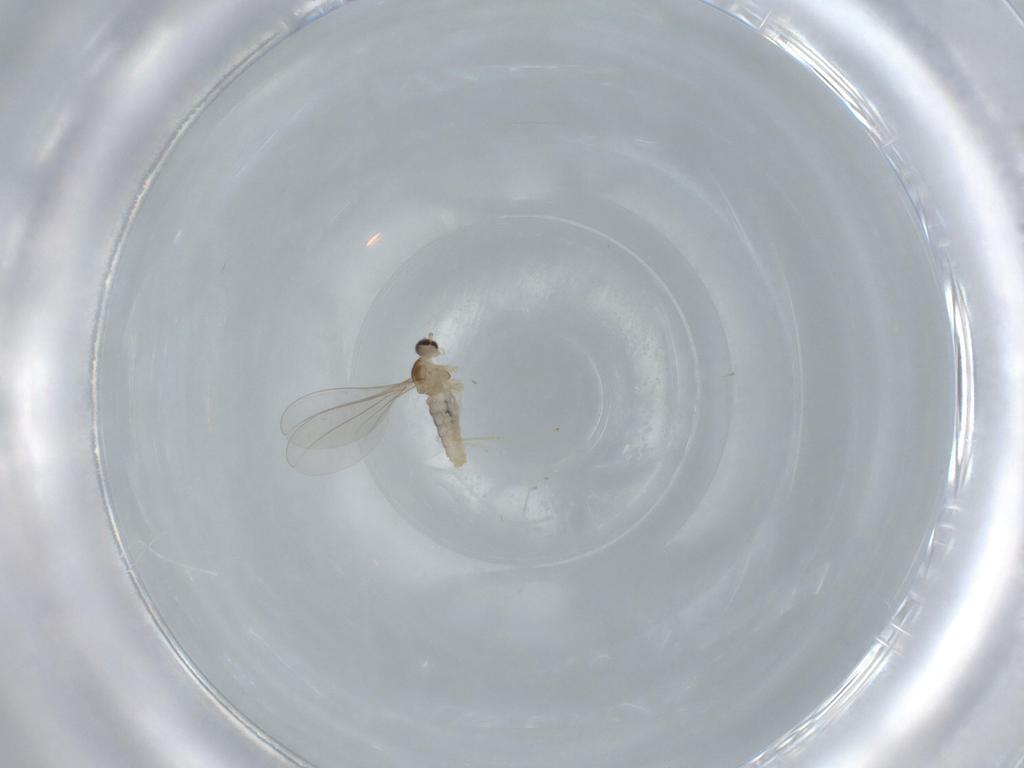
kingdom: Animalia
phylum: Arthropoda
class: Insecta
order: Diptera
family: Cecidomyiidae
